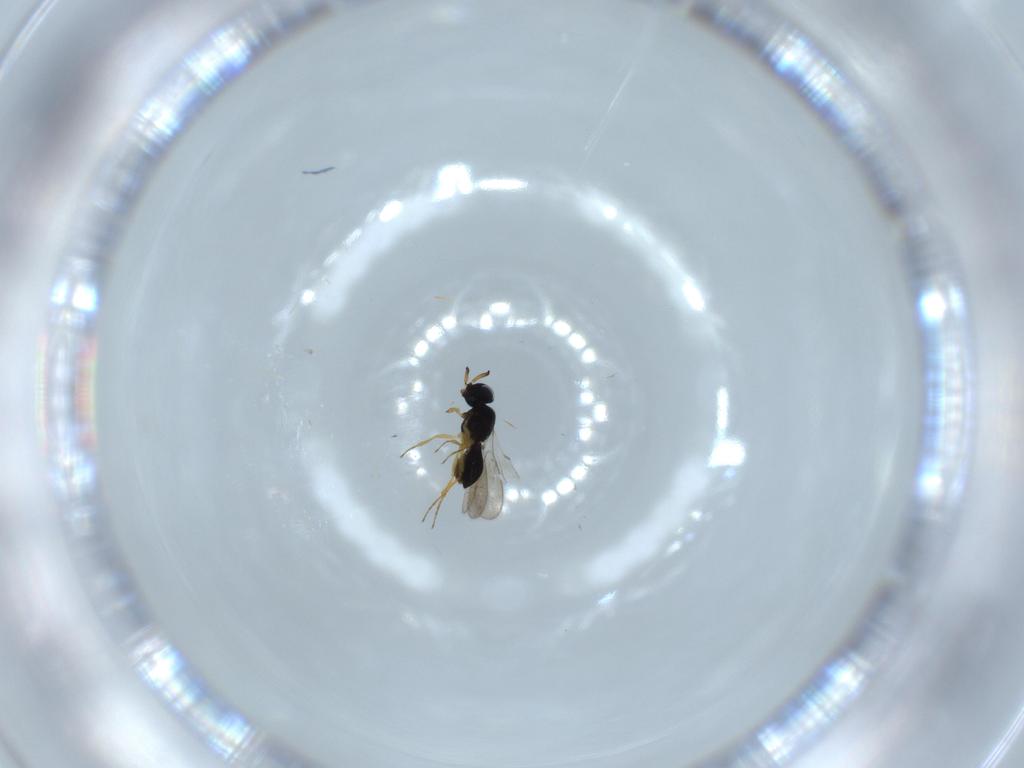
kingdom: Animalia
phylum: Arthropoda
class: Insecta
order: Hymenoptera
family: Scelionidae
